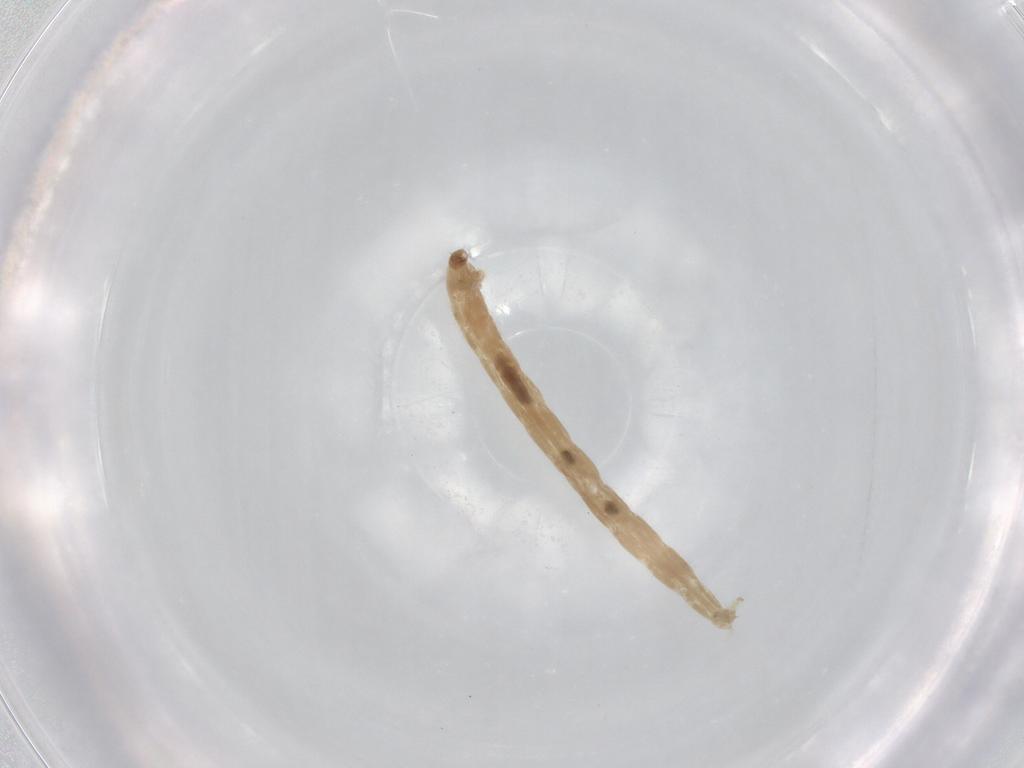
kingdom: Animalia
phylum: Arthropoda
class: Insecta
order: Diptera
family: Chironomidae
